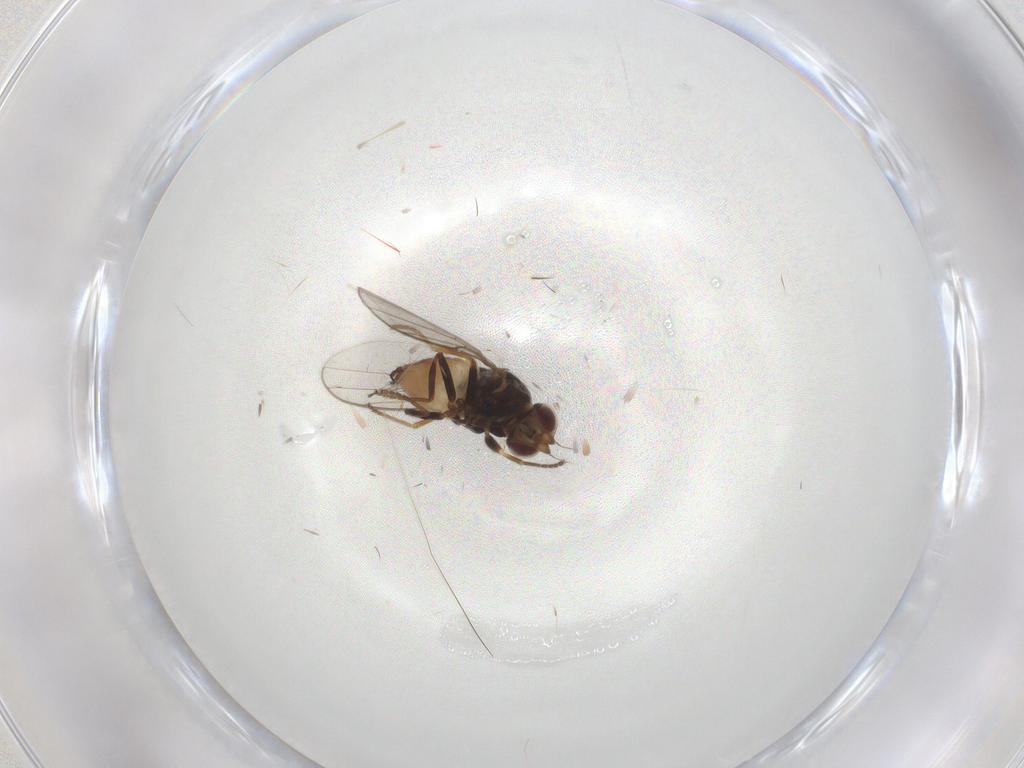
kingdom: Animalia
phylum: Arthropoda
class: Insecta
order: Diptera
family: Chloropidae
